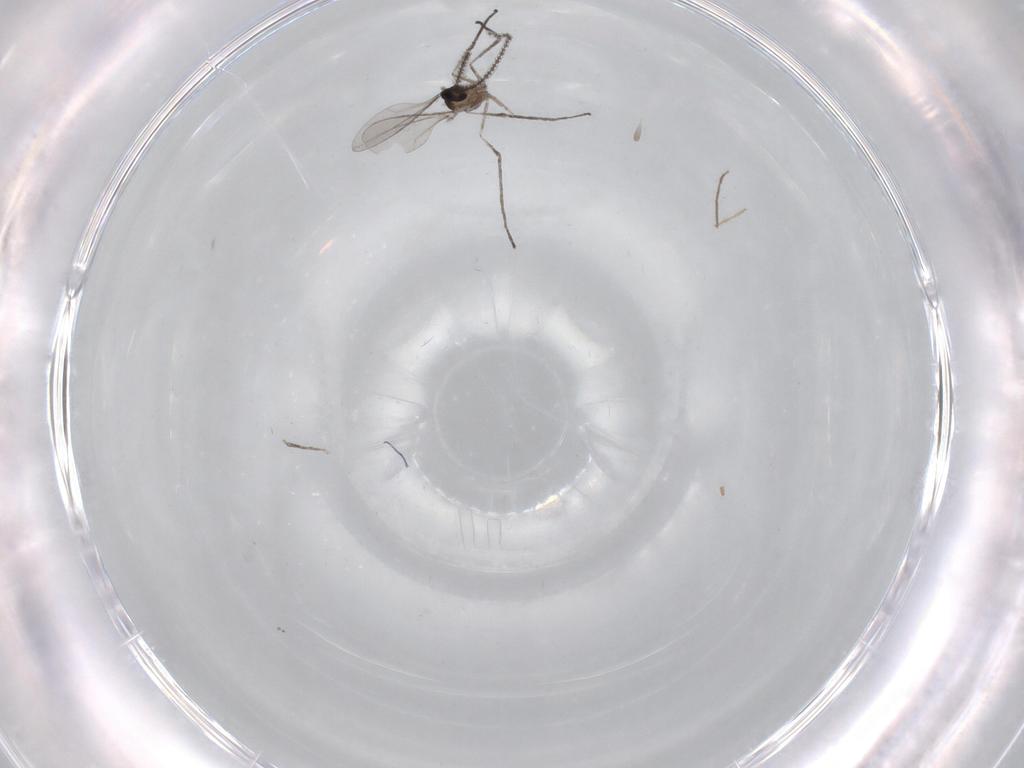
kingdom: Animalia
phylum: Arthropoda
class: Insecta
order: Diptera
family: Cecidomyiidae
